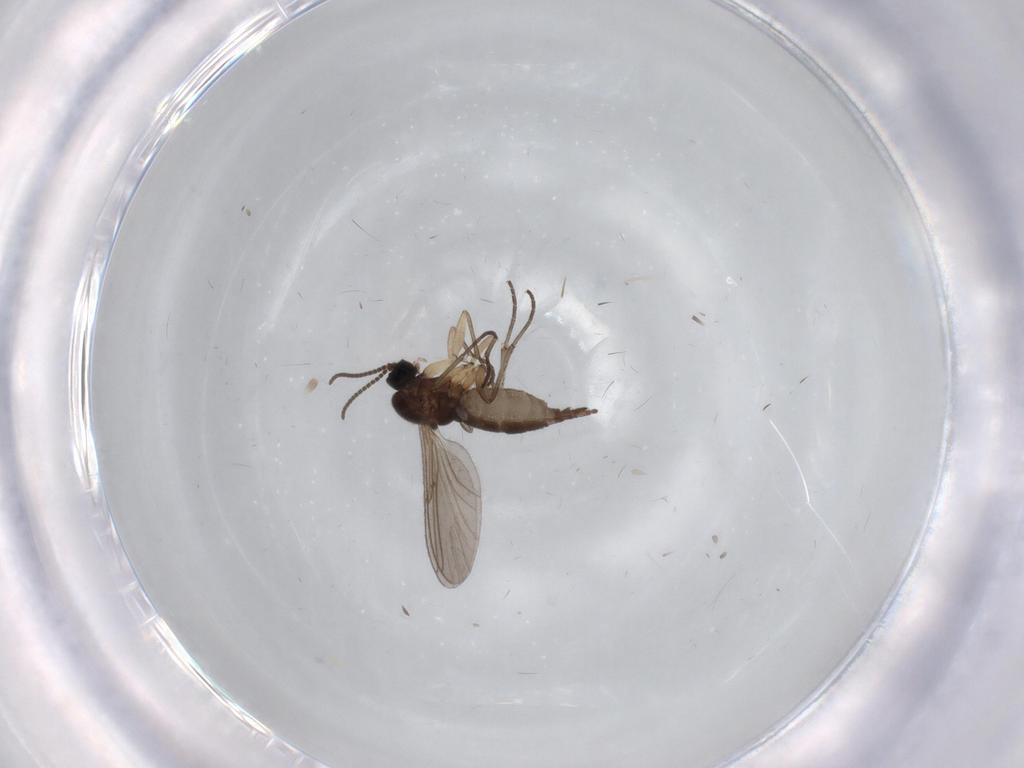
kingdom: Animalia
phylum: Arthropoda
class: Insecta
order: Diptera
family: Sciaridae
